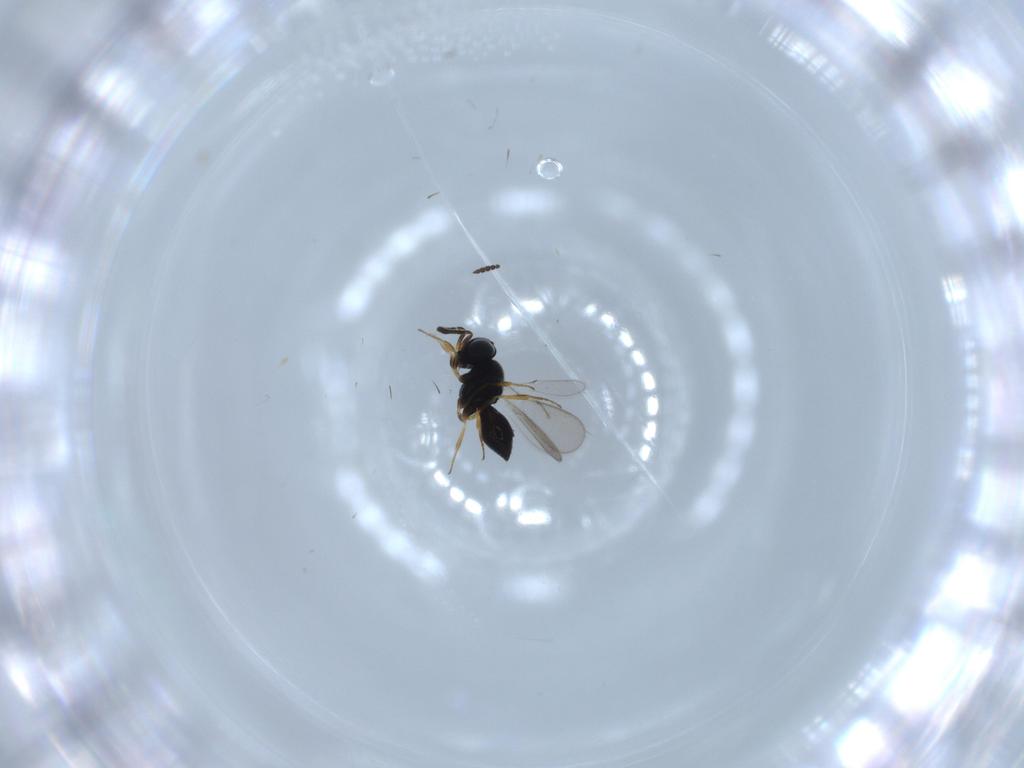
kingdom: Animalia
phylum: Arthropoda
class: Insecta
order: Hymenoptera
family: Scelionidae
